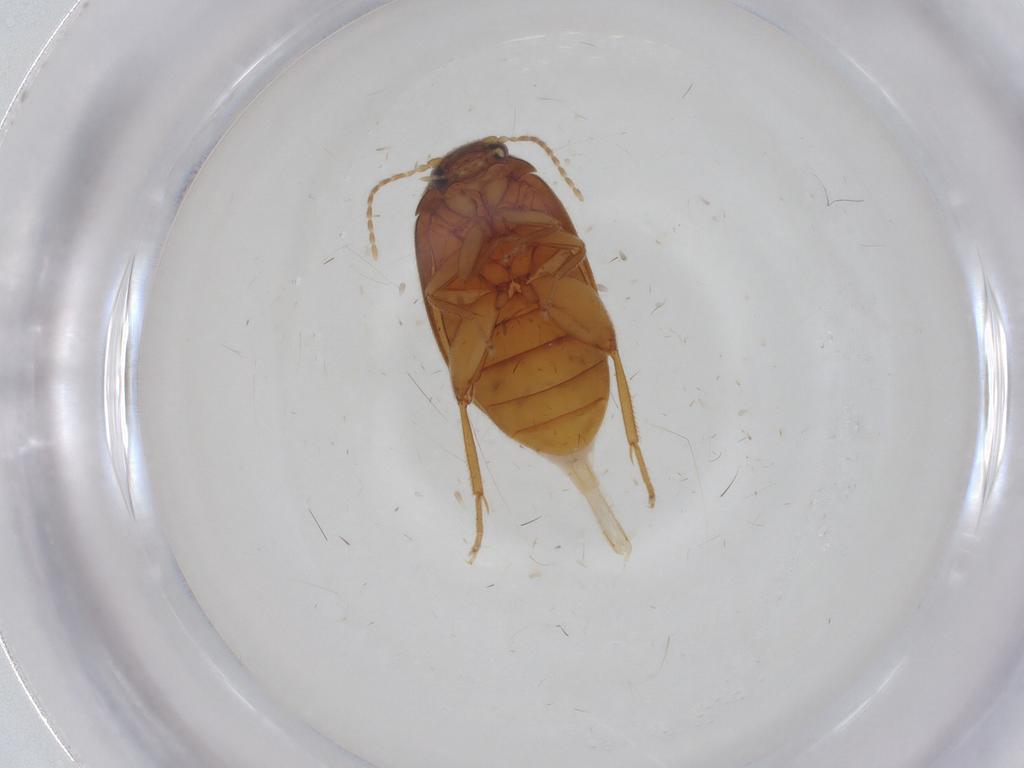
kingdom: Animalia
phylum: Arthropoda
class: Insecta
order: Coleoptera
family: Scirtidae
